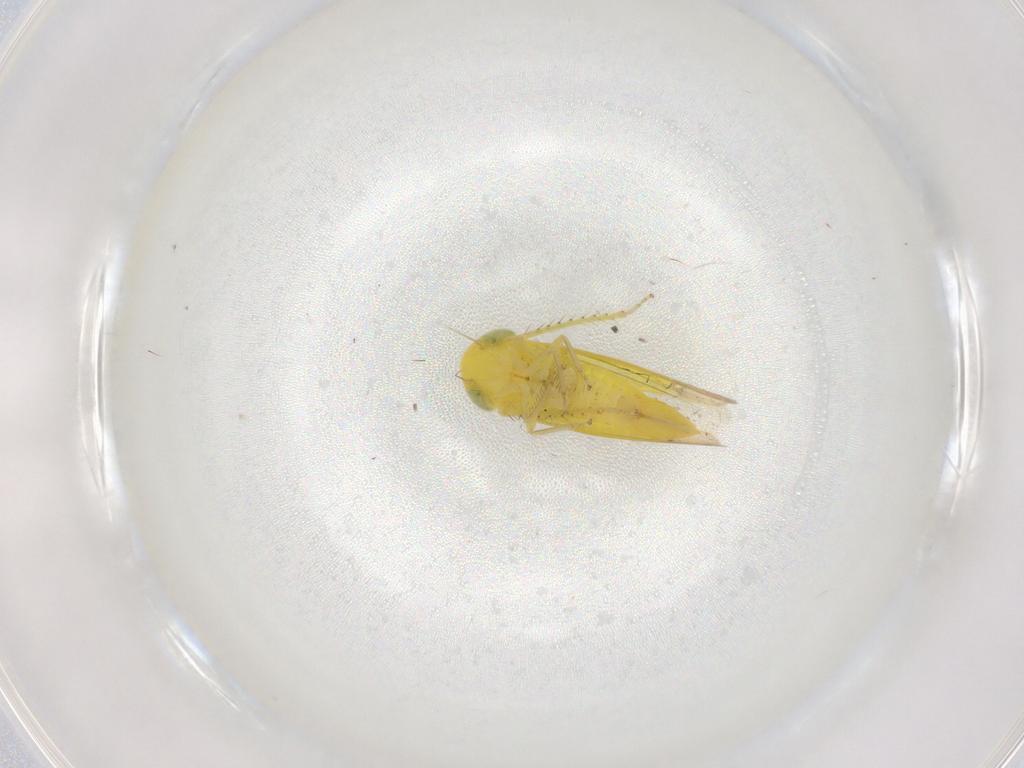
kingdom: Animalia
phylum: Arthropoda
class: Insecta
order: Hemiptera
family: Cicadellidae
